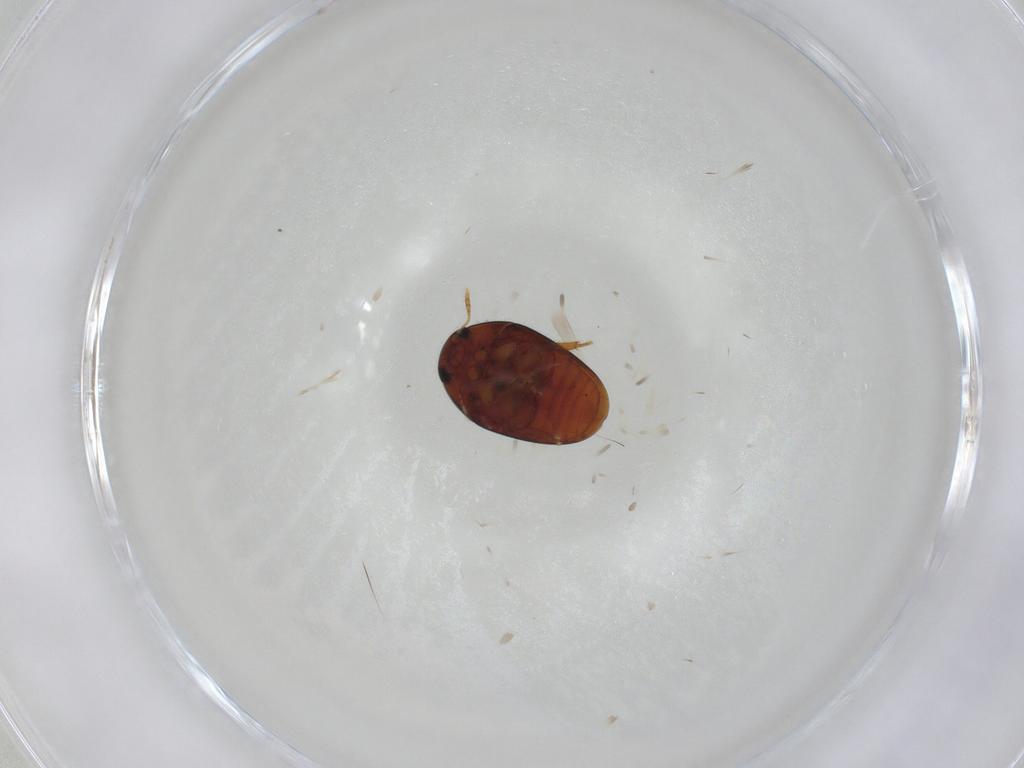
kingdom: Animalia
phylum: Arthropoda
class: Insecta
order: Coleoptera
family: Phalacridae
